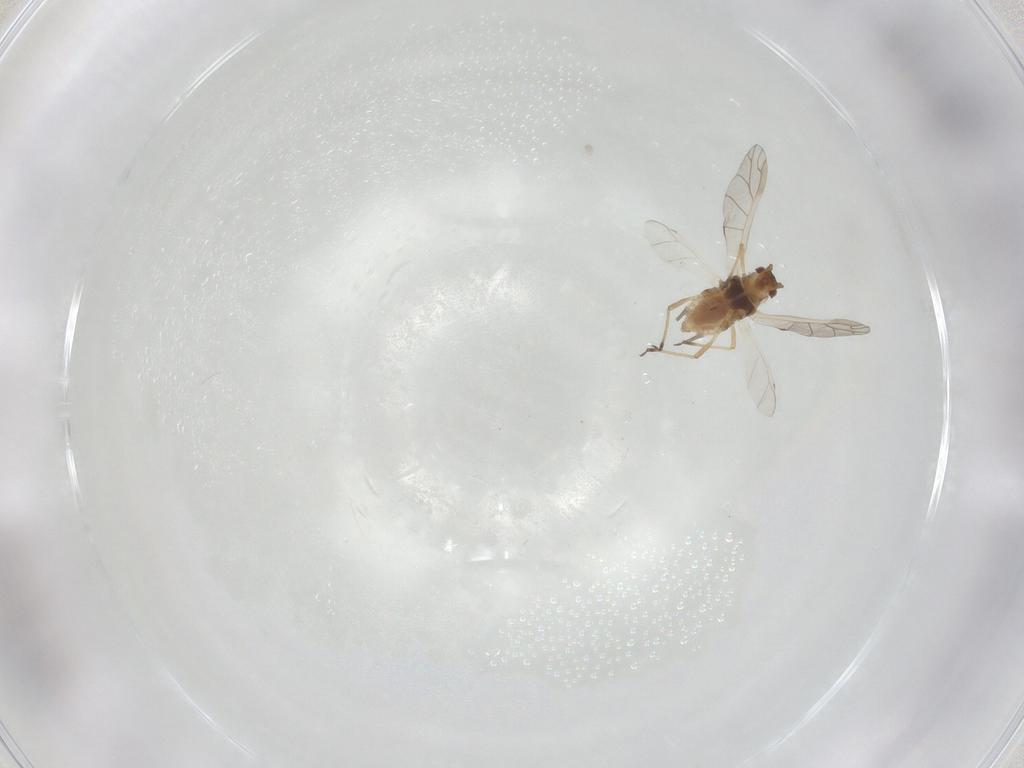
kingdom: Animalia
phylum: Arthropoda
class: Insecta
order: Hemiptera
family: Aphididae
